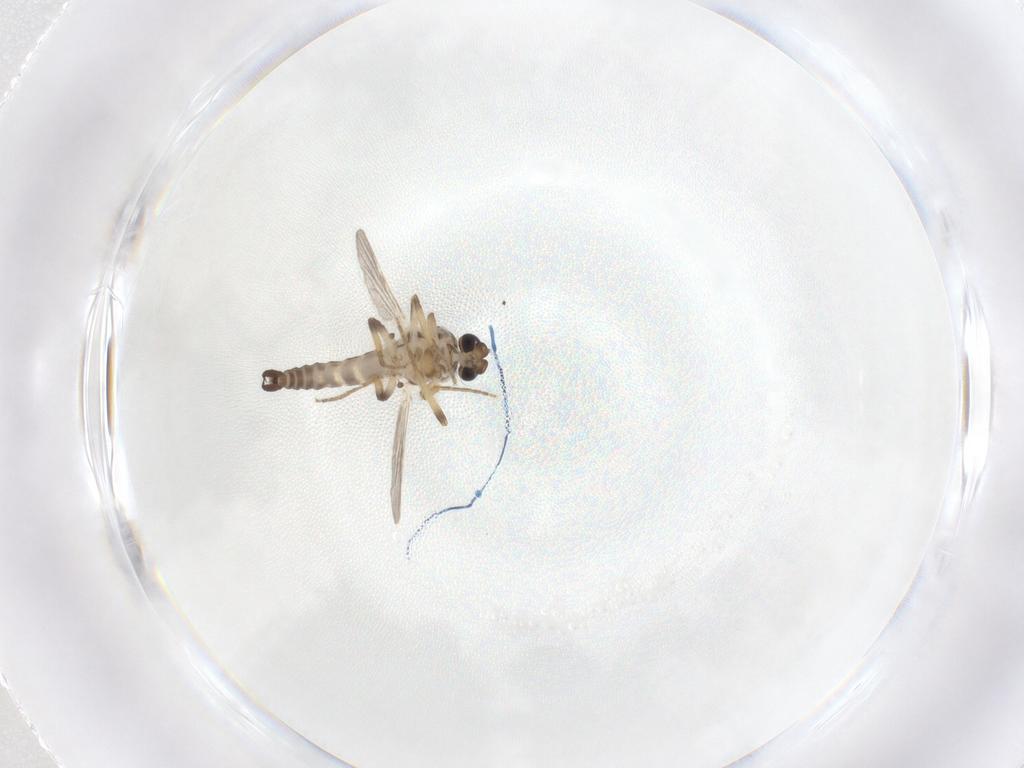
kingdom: Animalia
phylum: Arthropoda
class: Insecta
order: Diptera
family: Ceratopogonidae
